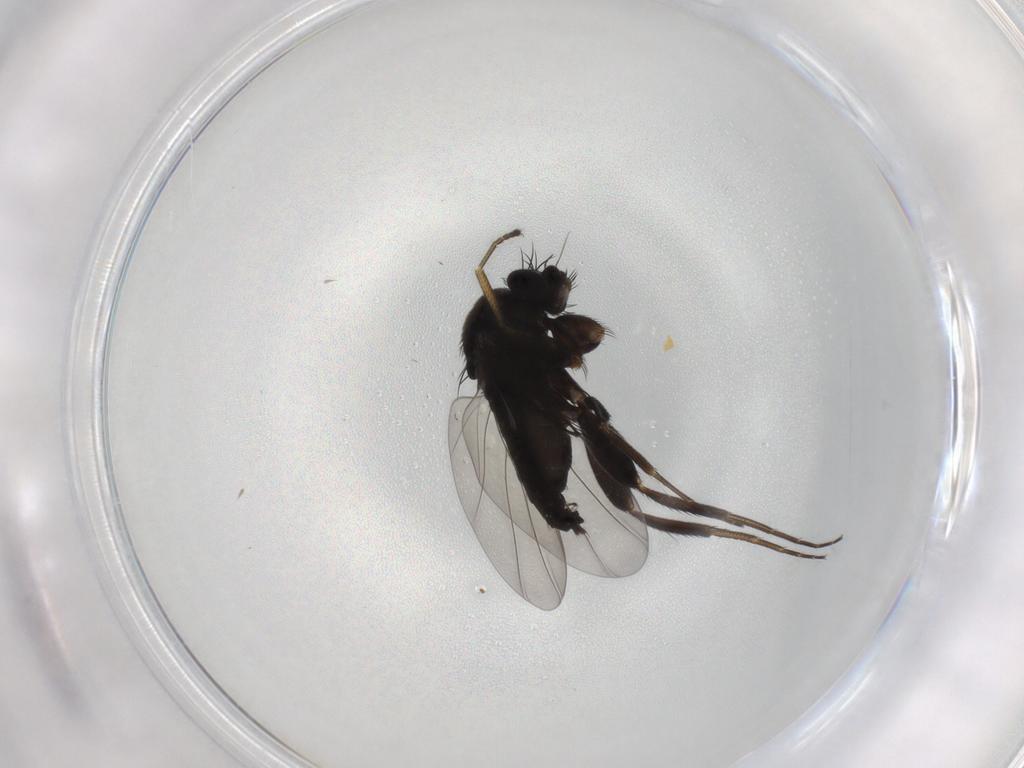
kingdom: Animalia
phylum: Arthropoda
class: Insecta
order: Diptera
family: Phoridae
